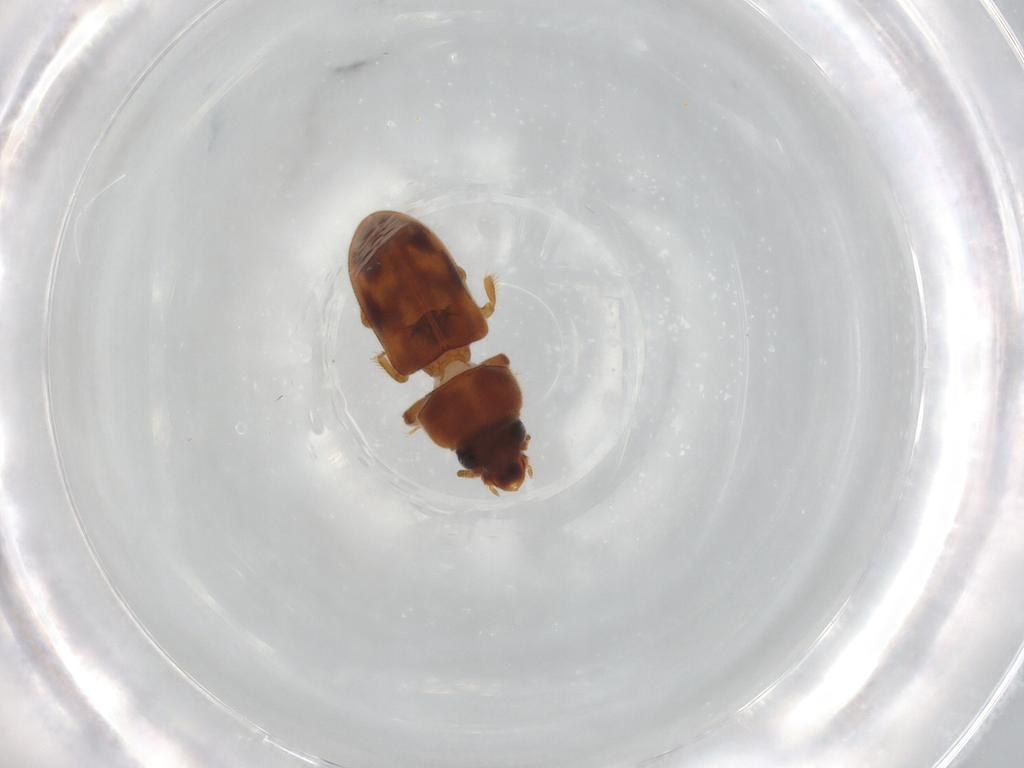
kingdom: Animalia
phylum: Arthropoda
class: Insecta
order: Coleoptera
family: Scarabaeidae
